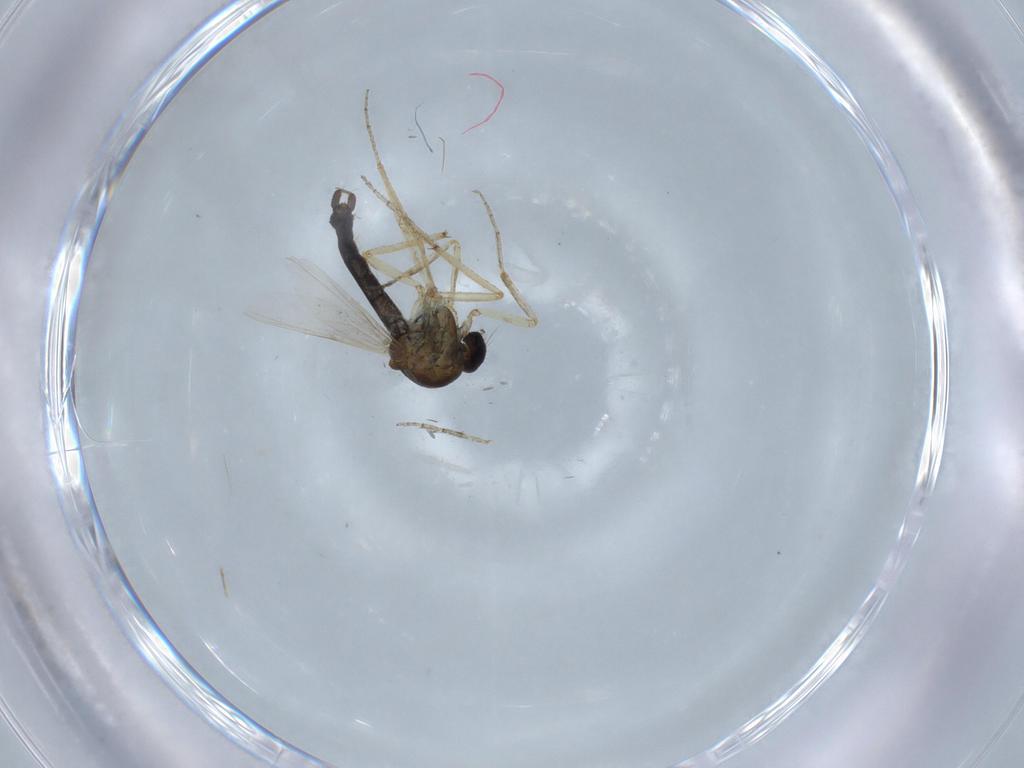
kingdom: Animalia
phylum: Arthropoda
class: Insecta
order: Diptera
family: Ceratopogonidae
